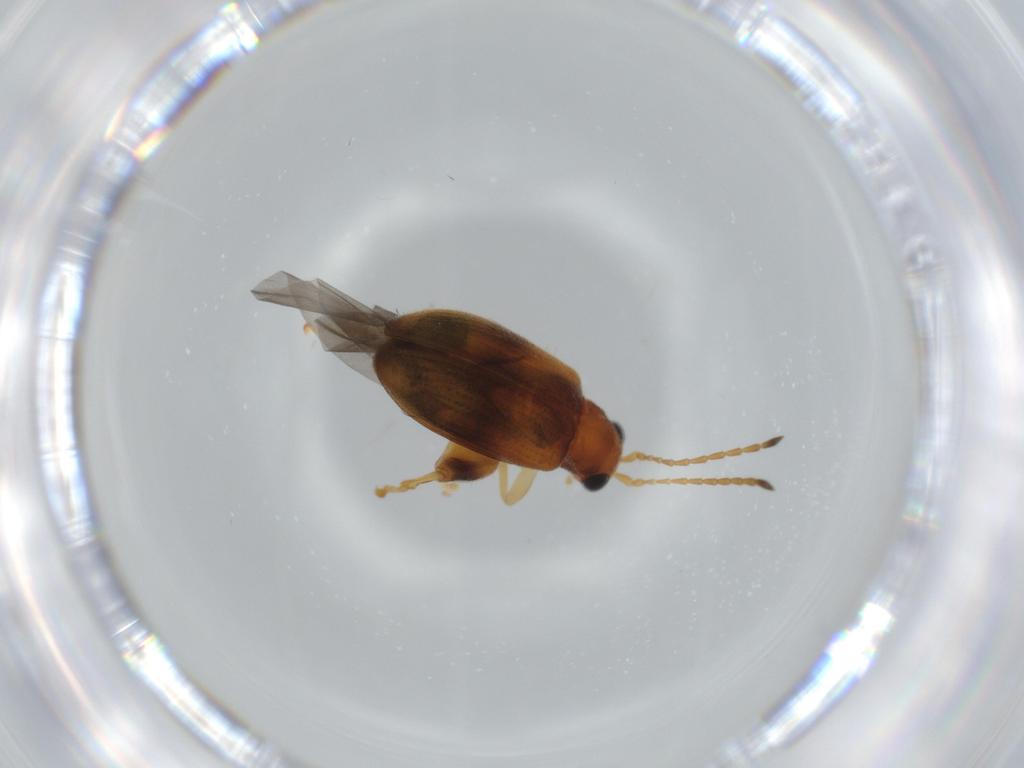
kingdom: Animalia
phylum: Arthropoda
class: Insecta
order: Coleoptera
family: Chrysomelidae
